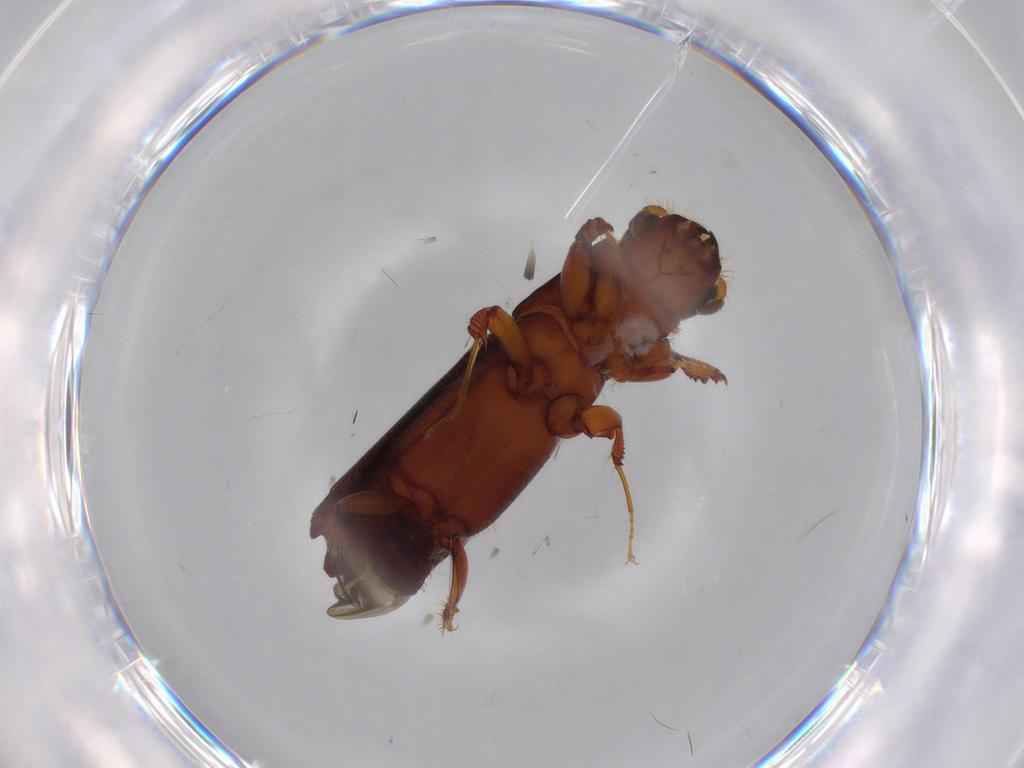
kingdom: Animalia
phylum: Arthropoda
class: Insecta
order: Coleoptera
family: Chrysomelidae
